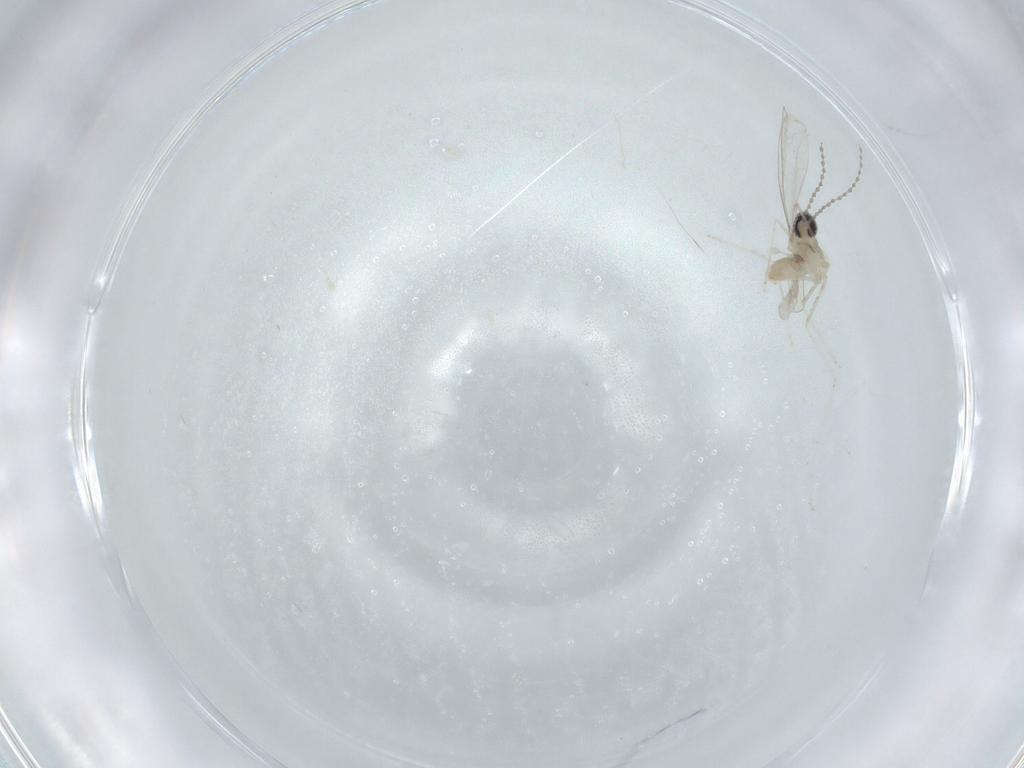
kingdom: Animalia
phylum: Arthropoda
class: Insecta
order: Diptera
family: Cecidomyiidae
